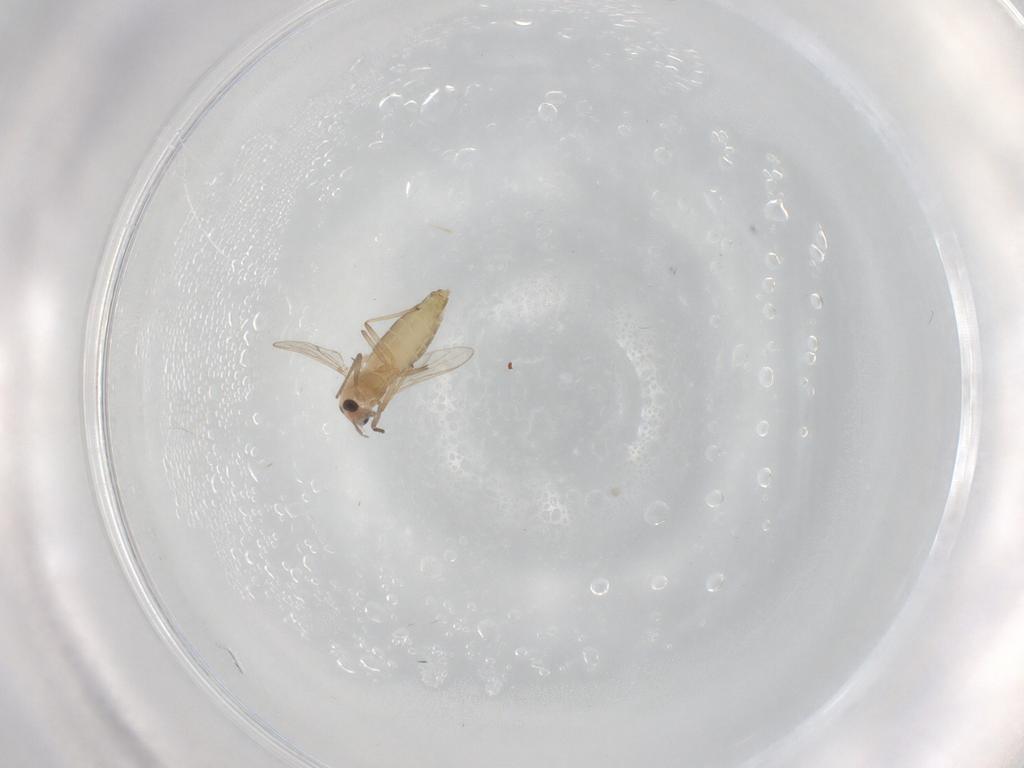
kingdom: Animalia
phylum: Arthropoda
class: Insecta
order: Diptera
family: Chironomidae
